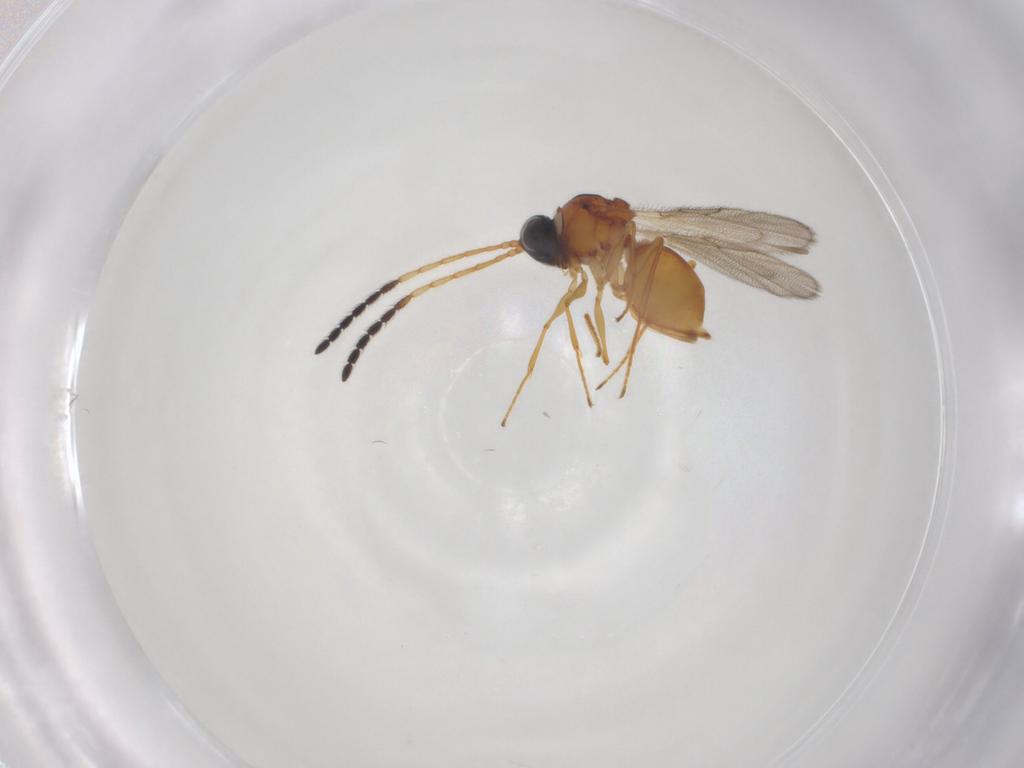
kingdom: Animalia
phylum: Arthropoda
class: Insecta
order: Hymenoptera
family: Figitidae
